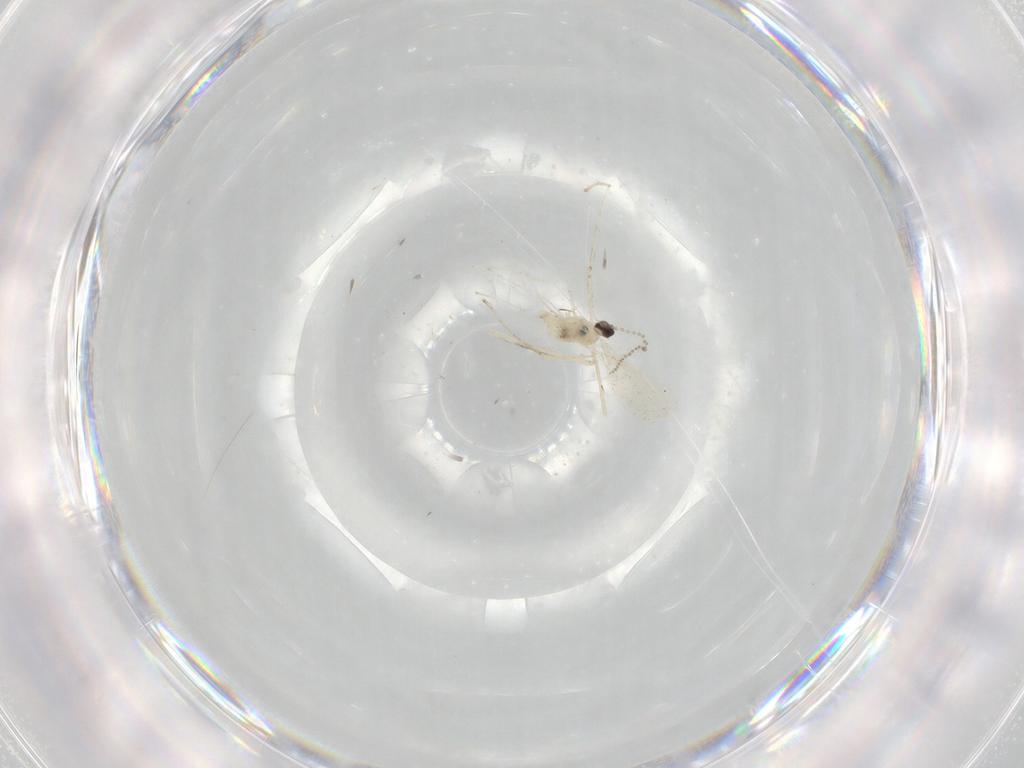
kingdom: Animalia
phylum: Arthropoda
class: Insecta
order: Diptera
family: Cecidomyiidae
